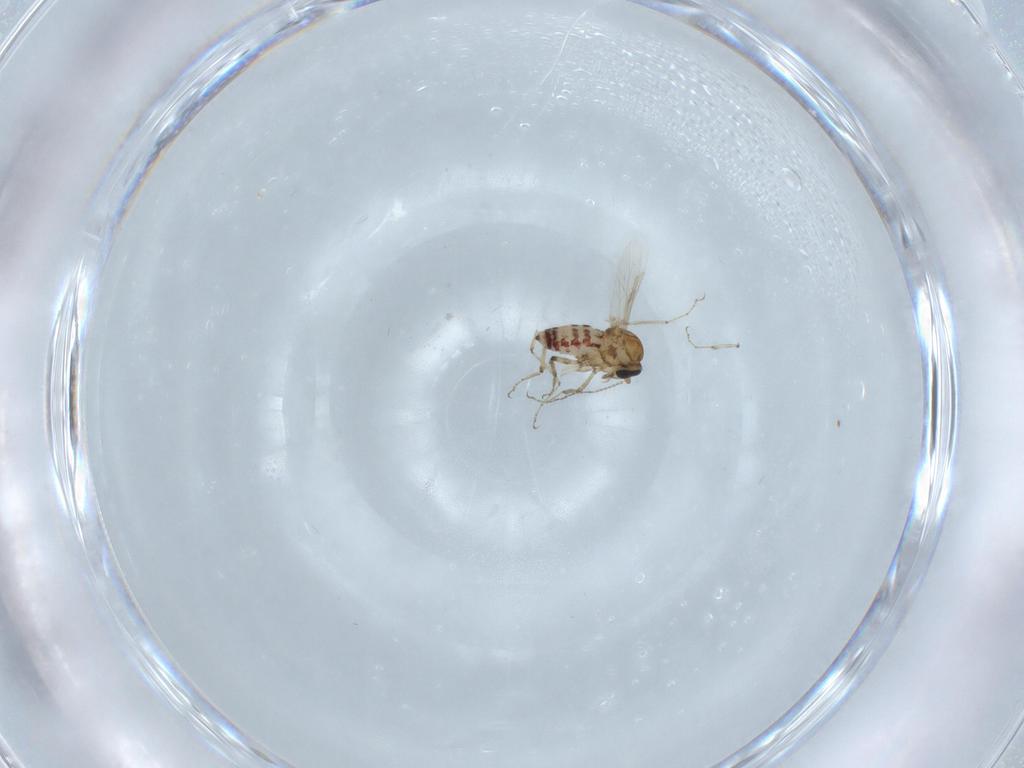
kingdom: Animalia
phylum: Arthropoda
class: Insecta
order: Diptera
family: Ceratopogonidae
